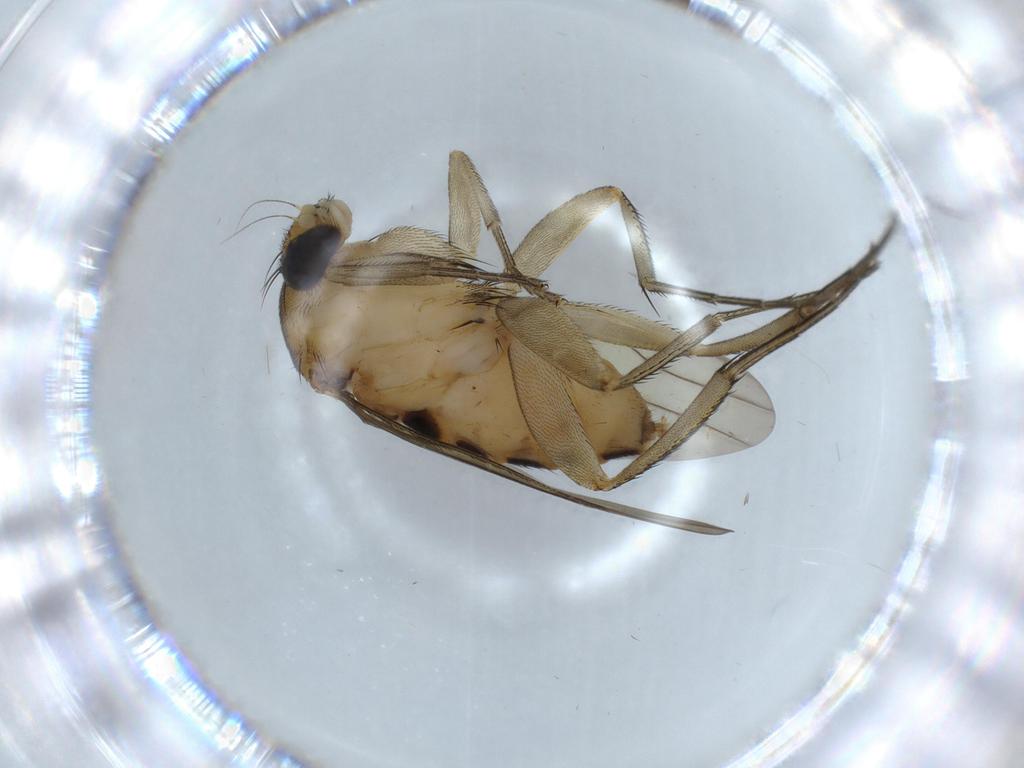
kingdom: Animalia
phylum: Arthropoda
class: Insecta
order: Diptera
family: Phoridae
